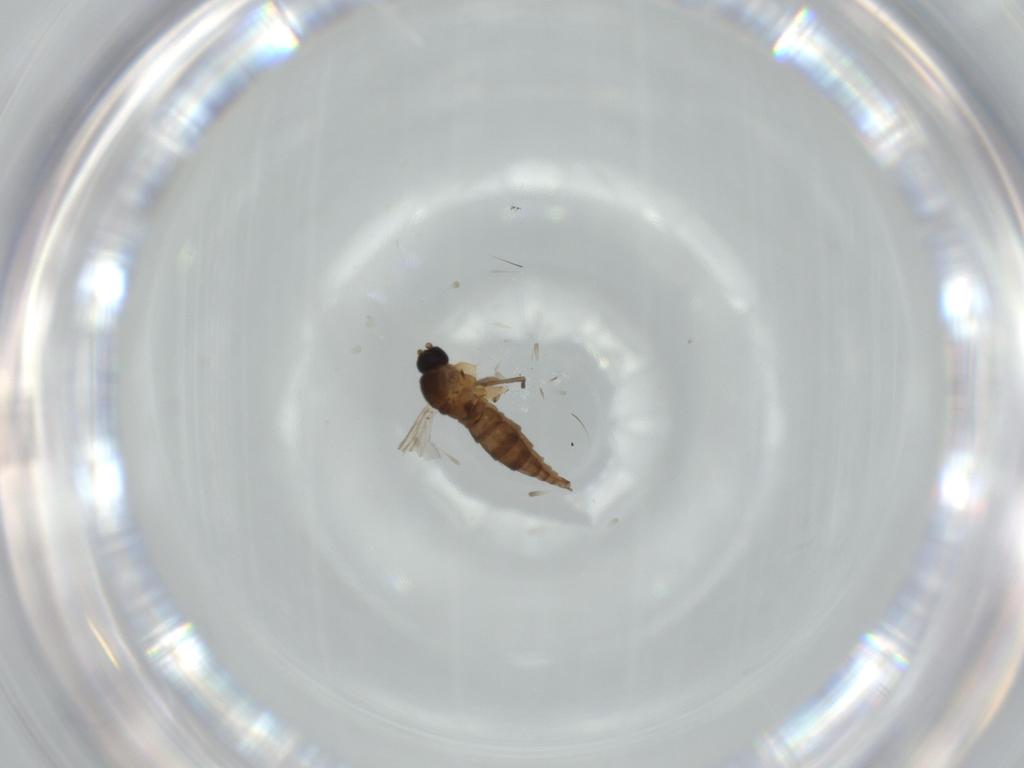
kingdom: Animalia
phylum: Arthropoda
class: Insecta
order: Diptera
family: Sciaridae
